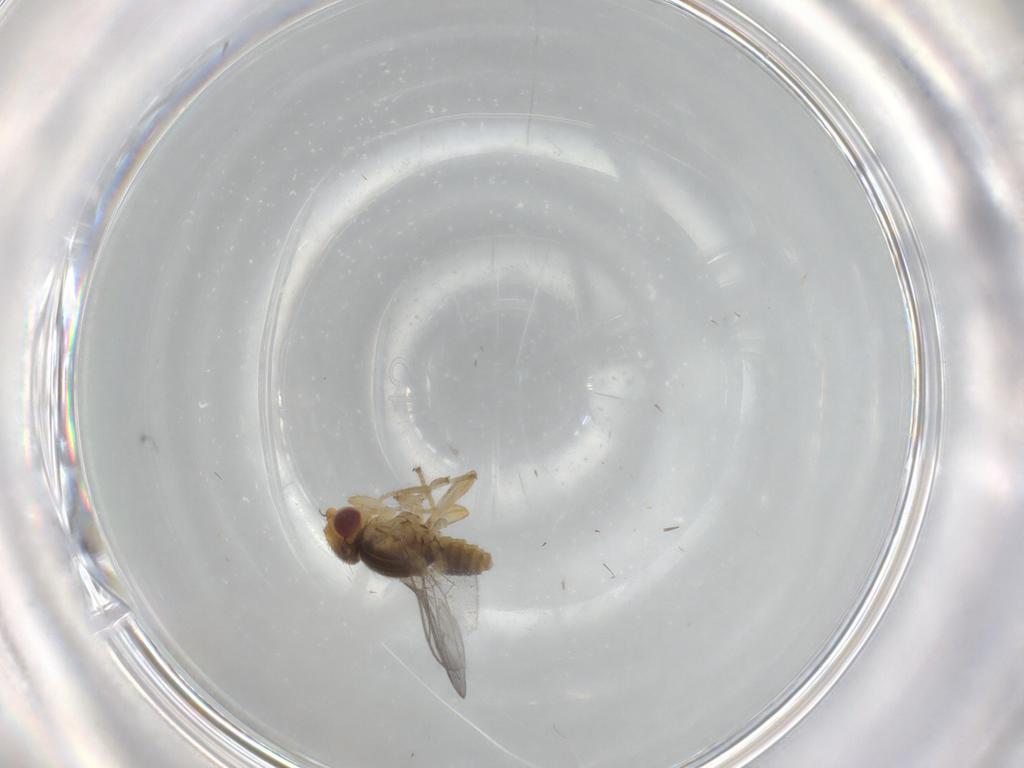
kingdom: Animalia
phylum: Arthropoda
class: Insecta
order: Diptera
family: Chloropidae
